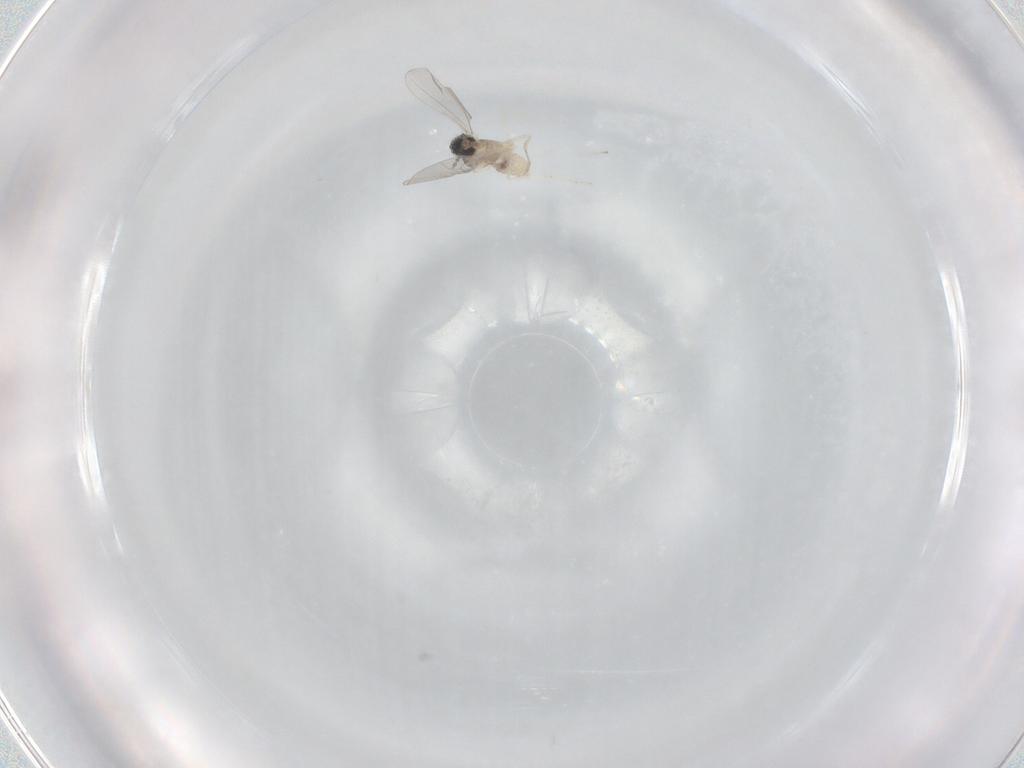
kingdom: Animalia
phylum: Arthropoda
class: Insecta
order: Diptera
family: Cecidomyiidae
